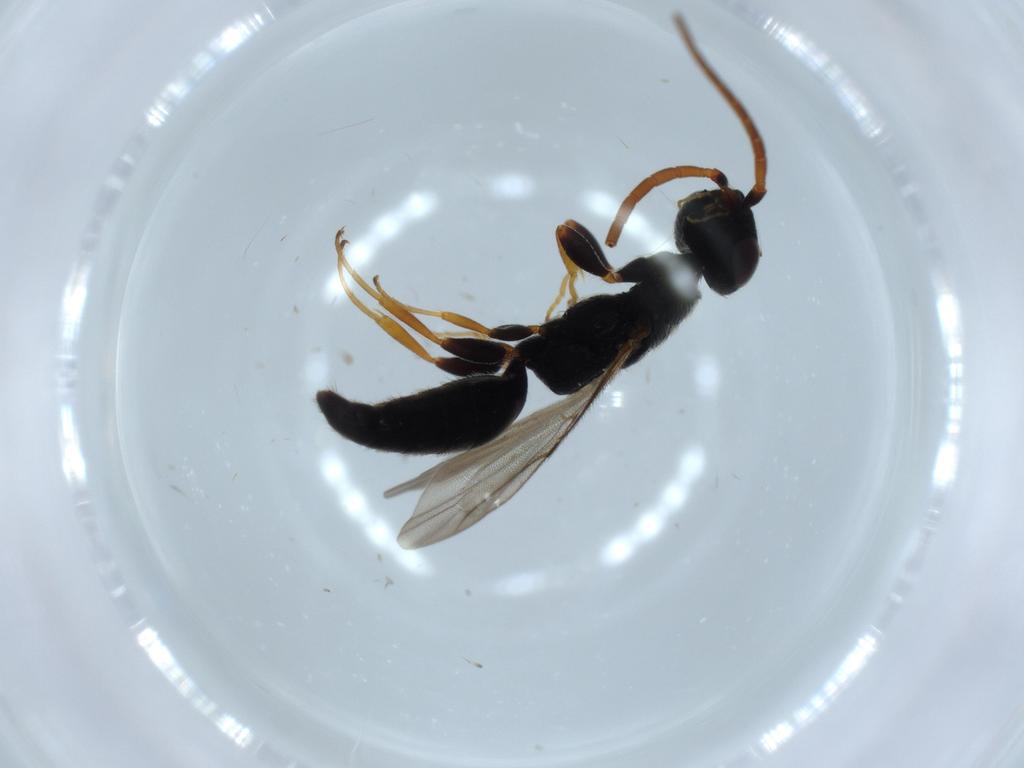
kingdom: Animalia
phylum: Arthropoda
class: Insecta
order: Hymenoptera
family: Bethylidae
